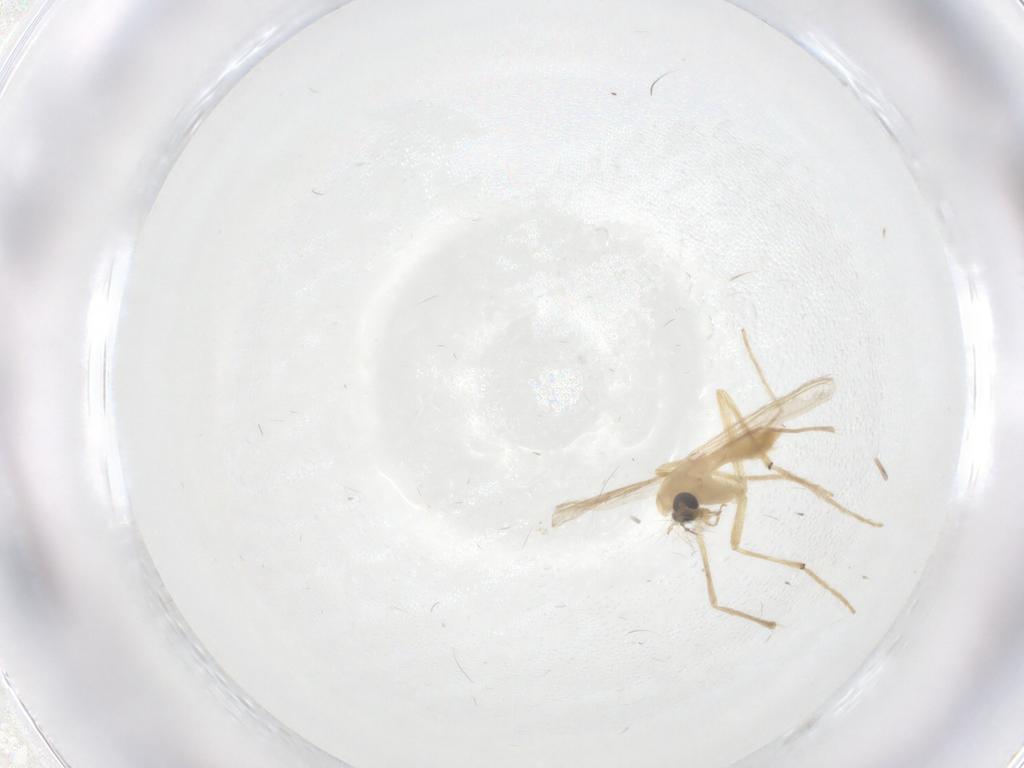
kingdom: Animalia
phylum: Arthropoda
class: Insecta
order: Diptera
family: Chironomidae
